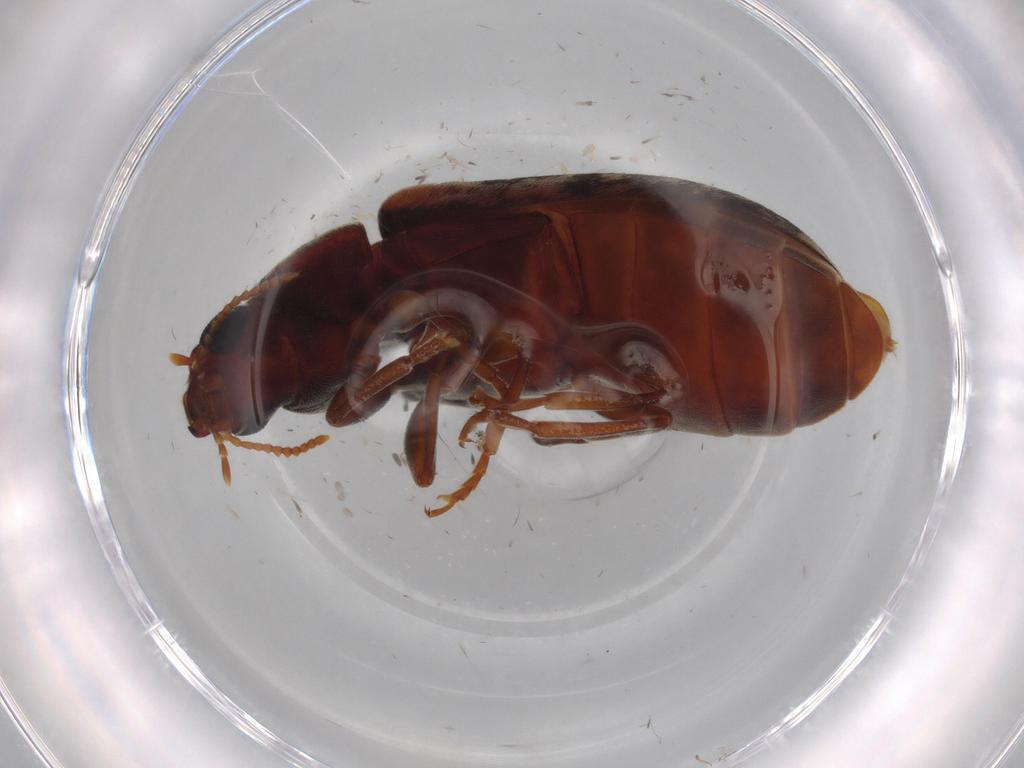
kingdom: Animalia
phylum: Arthropoda
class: Insecta
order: Coleoptera
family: Mycteridae
